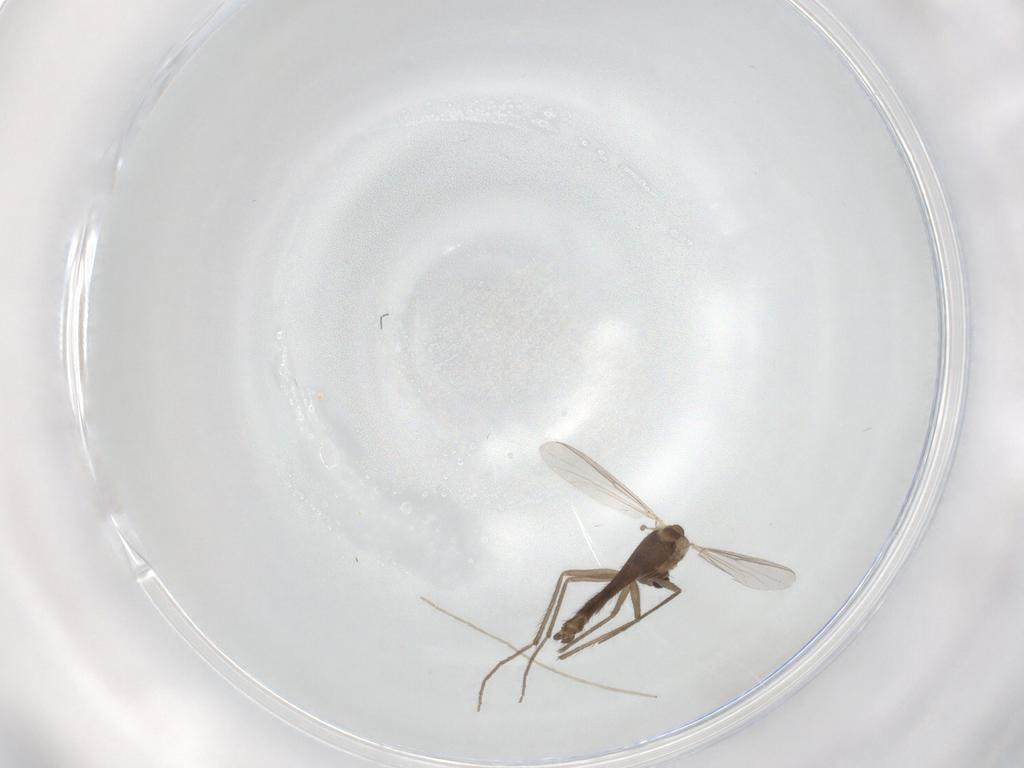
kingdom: Animalia
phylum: Arthropoda
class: Insecta
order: Diptera
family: Chironomidae
